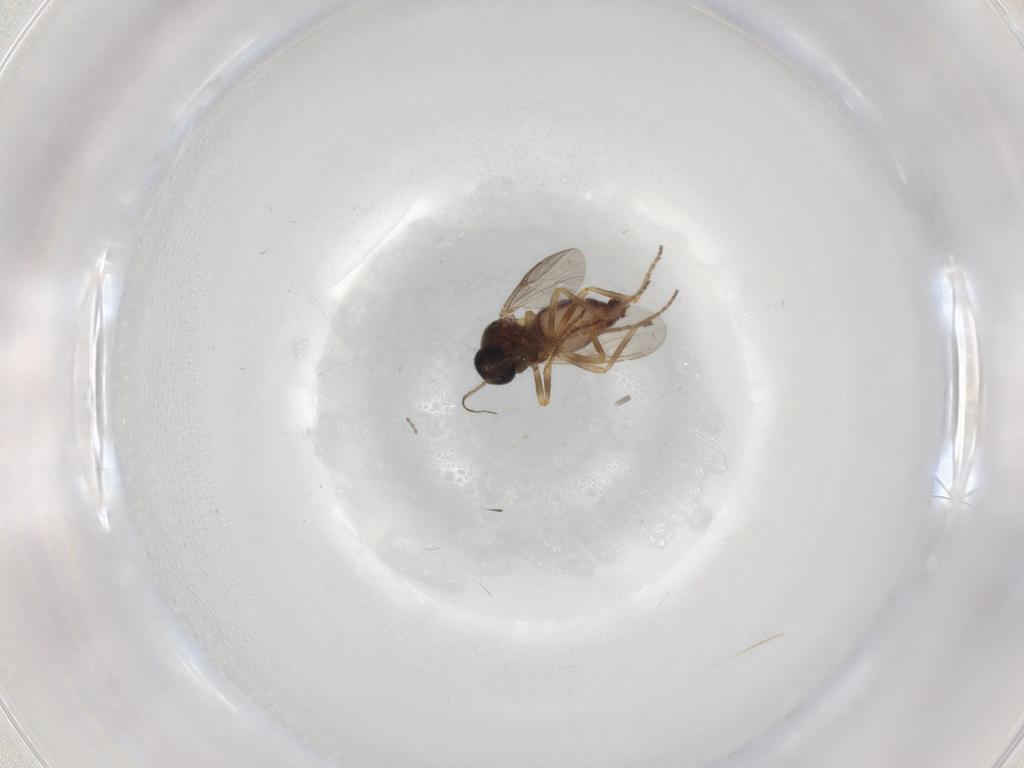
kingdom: Animalia
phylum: Arthropoda
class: Insecta
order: Diptera
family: Ceratopogonidae
